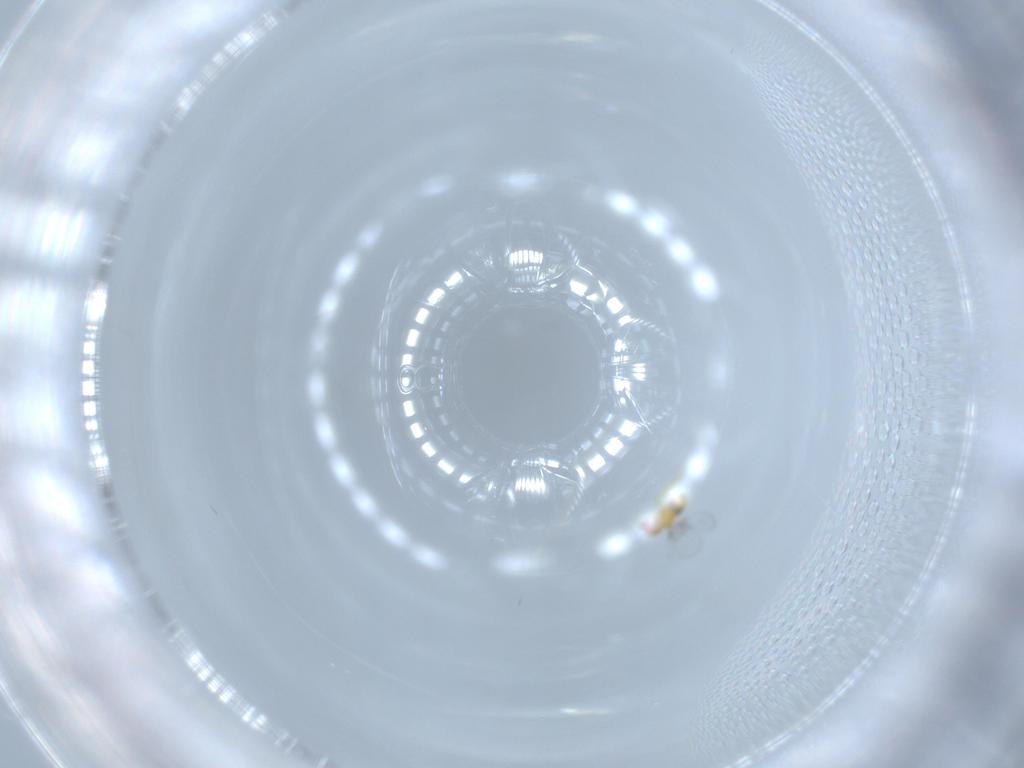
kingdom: Animalia
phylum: Arthropoda
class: Insecta
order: Hymenoptera
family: Trichogrammatidae
